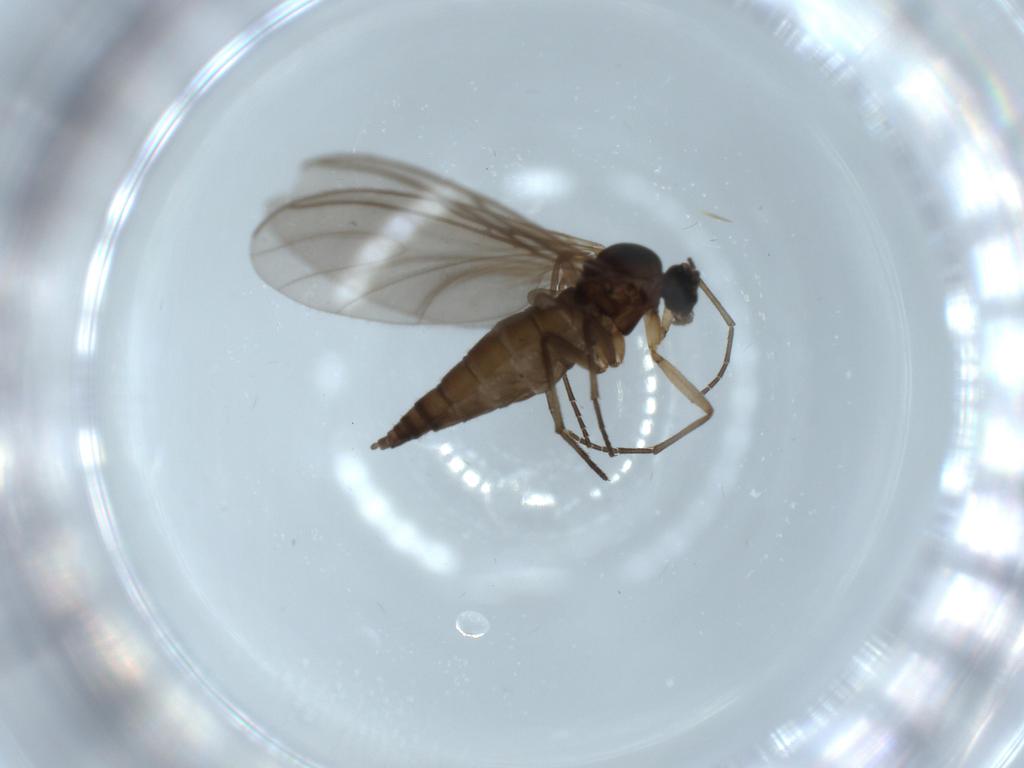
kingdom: Animalia
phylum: Arthropoda
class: Insecta
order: Diptera
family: Sciaridae
